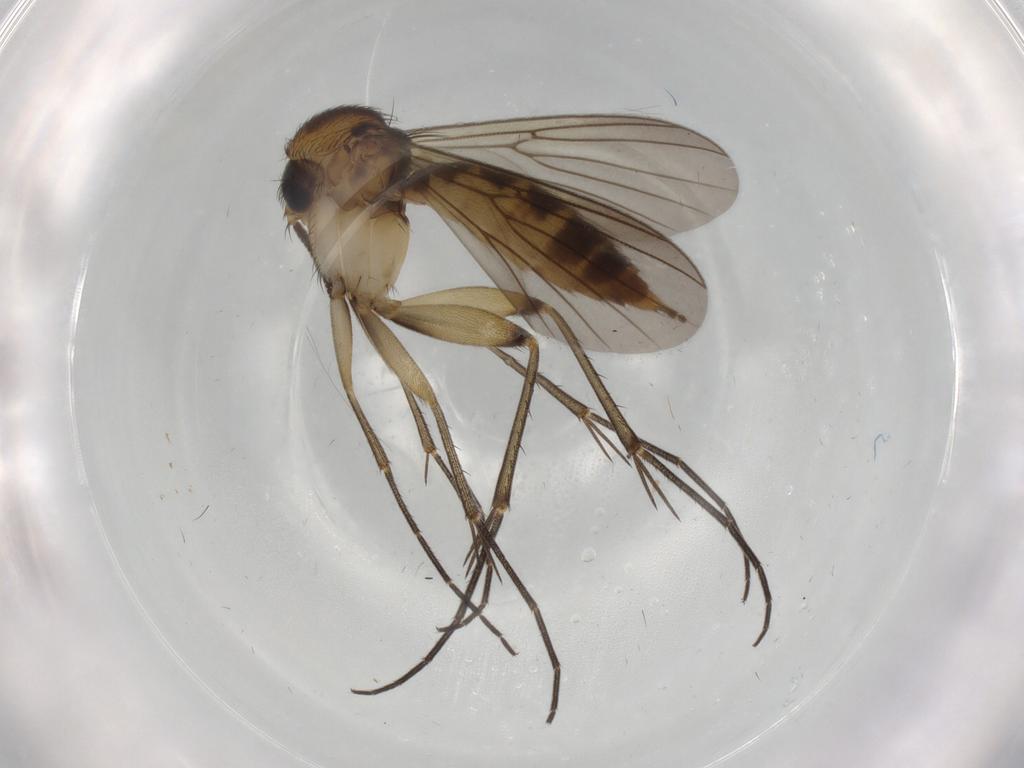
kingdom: Animalia
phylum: Arthropoda
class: Insecta
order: Diptera
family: Mycetophilidae
